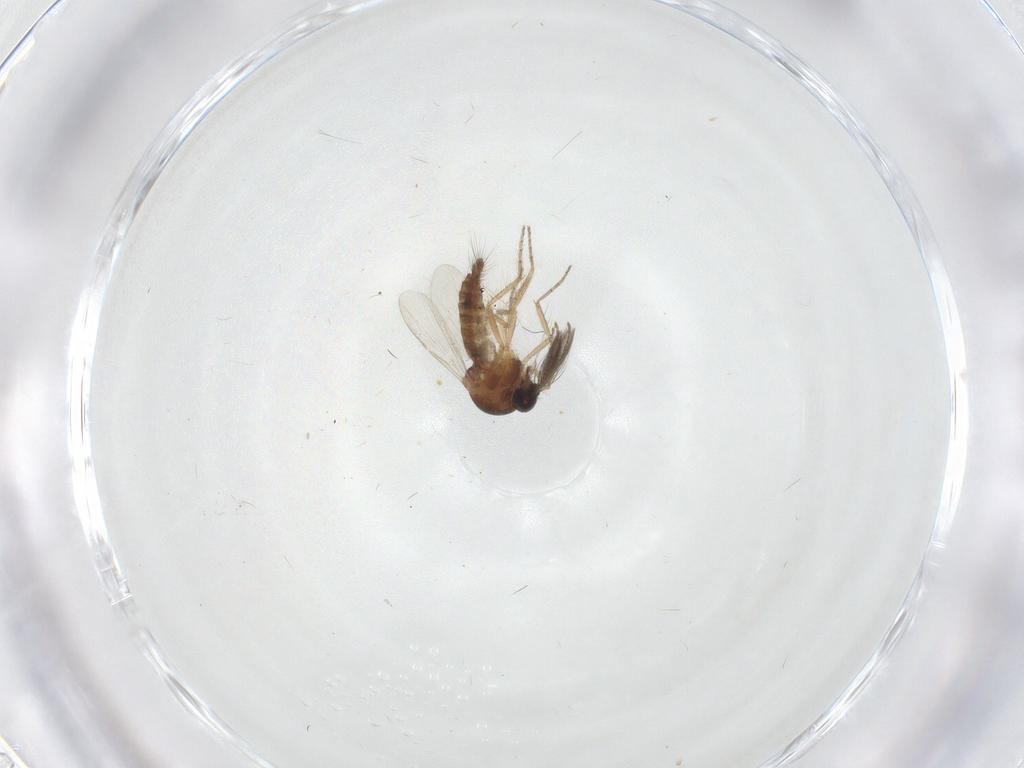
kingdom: Animalia
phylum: Arthropoda
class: Insecta
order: Diptera
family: Ceratopogonidae
